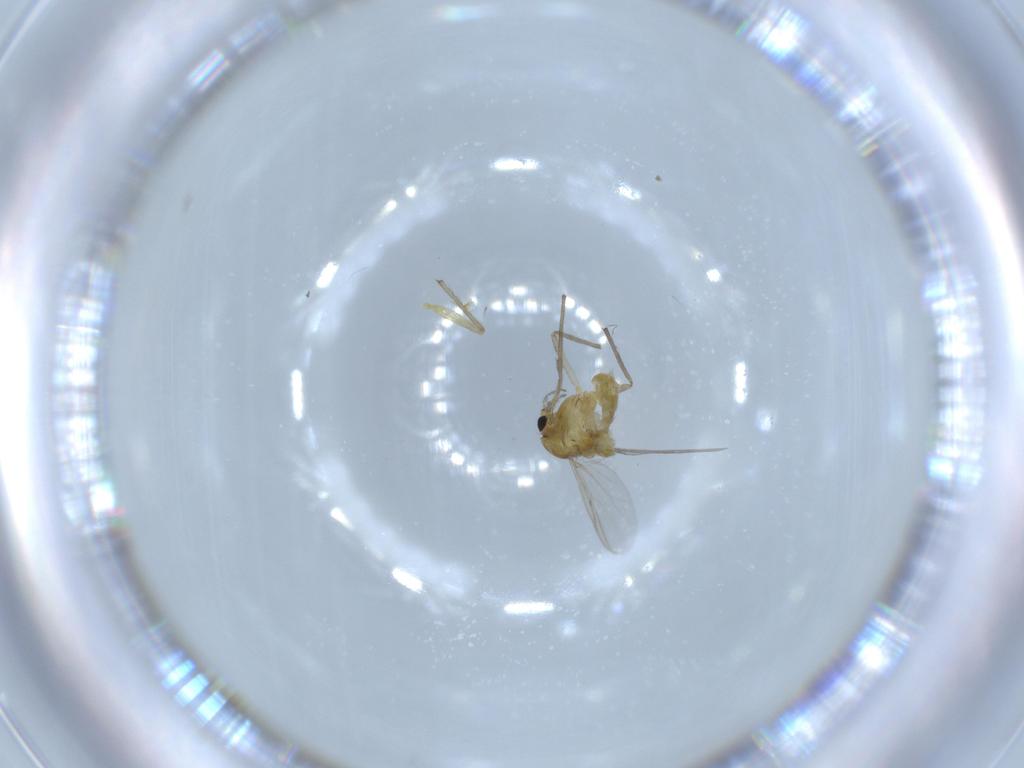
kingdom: Animalia
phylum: Arthropoda
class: Insecta
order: Diptera
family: Chironomidae
